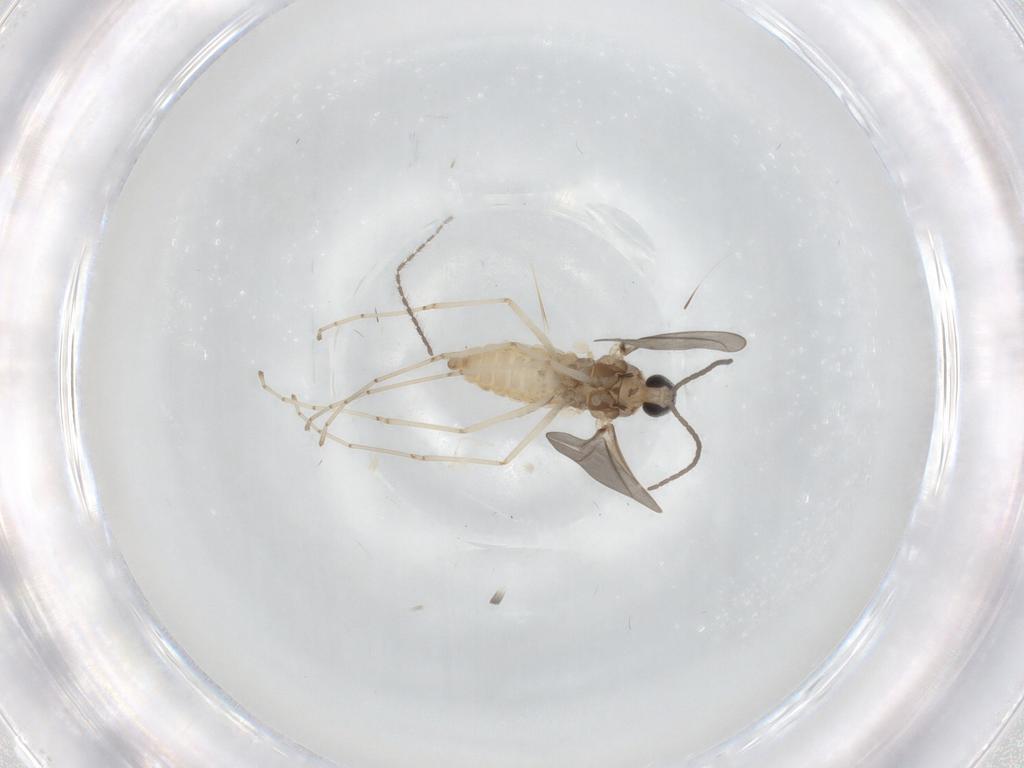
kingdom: Animalia
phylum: Arthropoda
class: Insecta
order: Diptera
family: Cecidomyiidae
